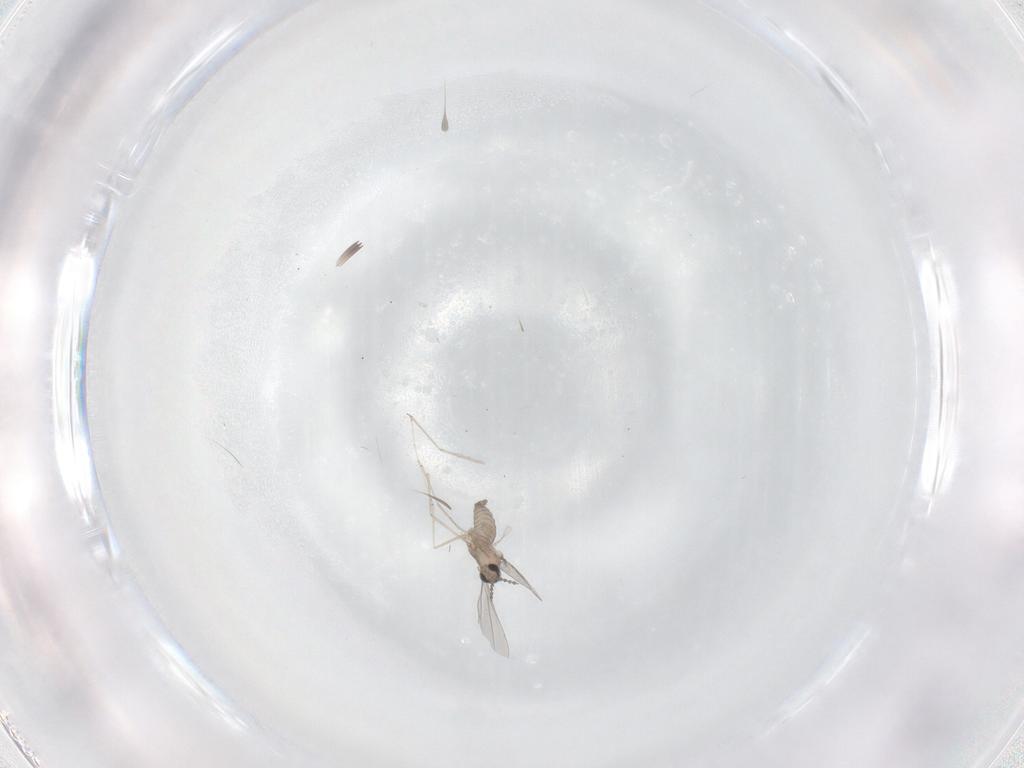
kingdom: Animalia
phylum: Arthropoda
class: Insecta
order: Diptera
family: Cecidomyiidae
